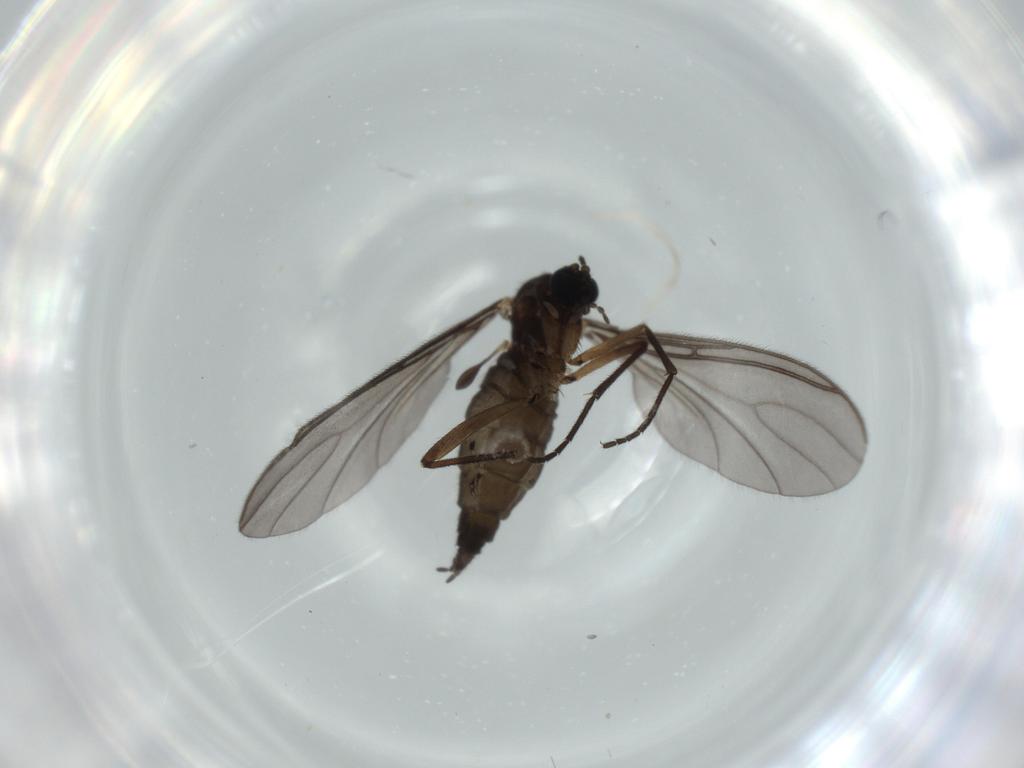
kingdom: Animalia
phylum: Arthropoda
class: Insecta
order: Diptera
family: Sciaridae
